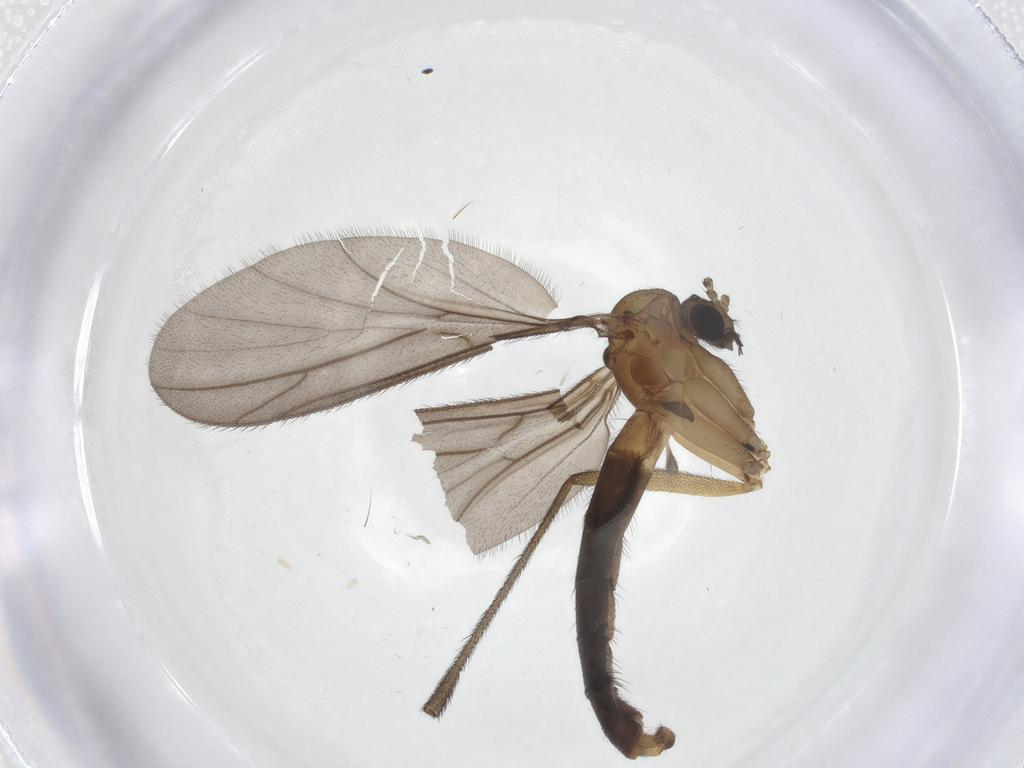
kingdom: Animalia
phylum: Arthropoda
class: Insecta
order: Diptera
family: Ditomyiidae
